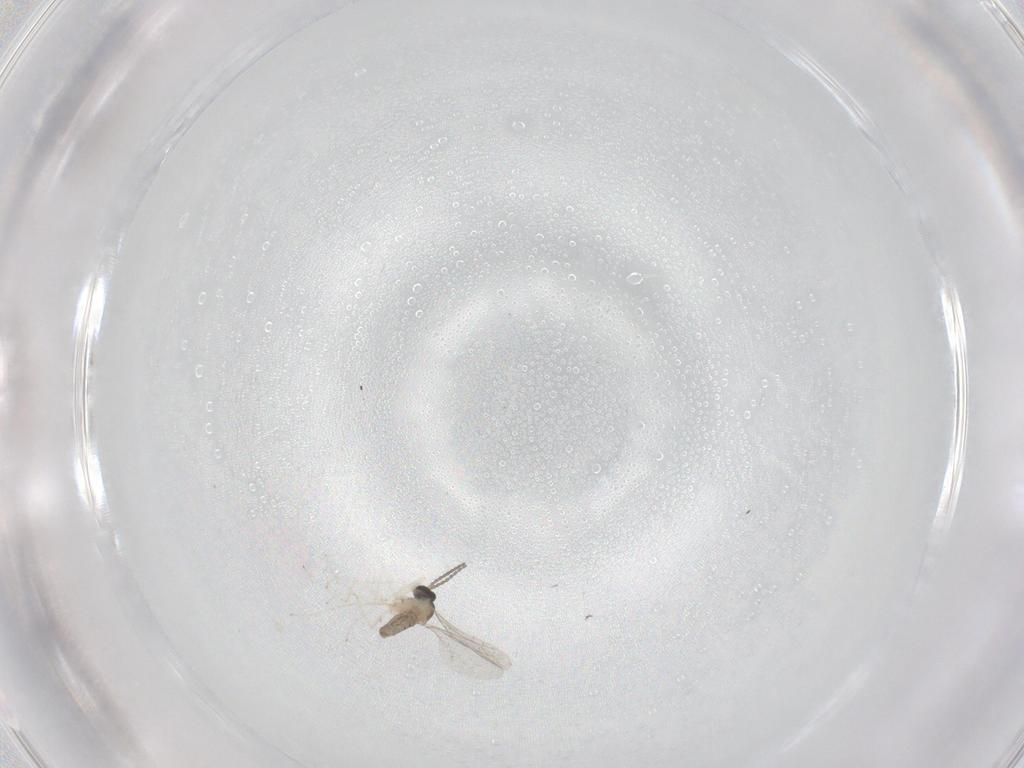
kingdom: Animalia
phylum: Arthropoda
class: Insecta
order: Diptera
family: Cecidomyiidae
